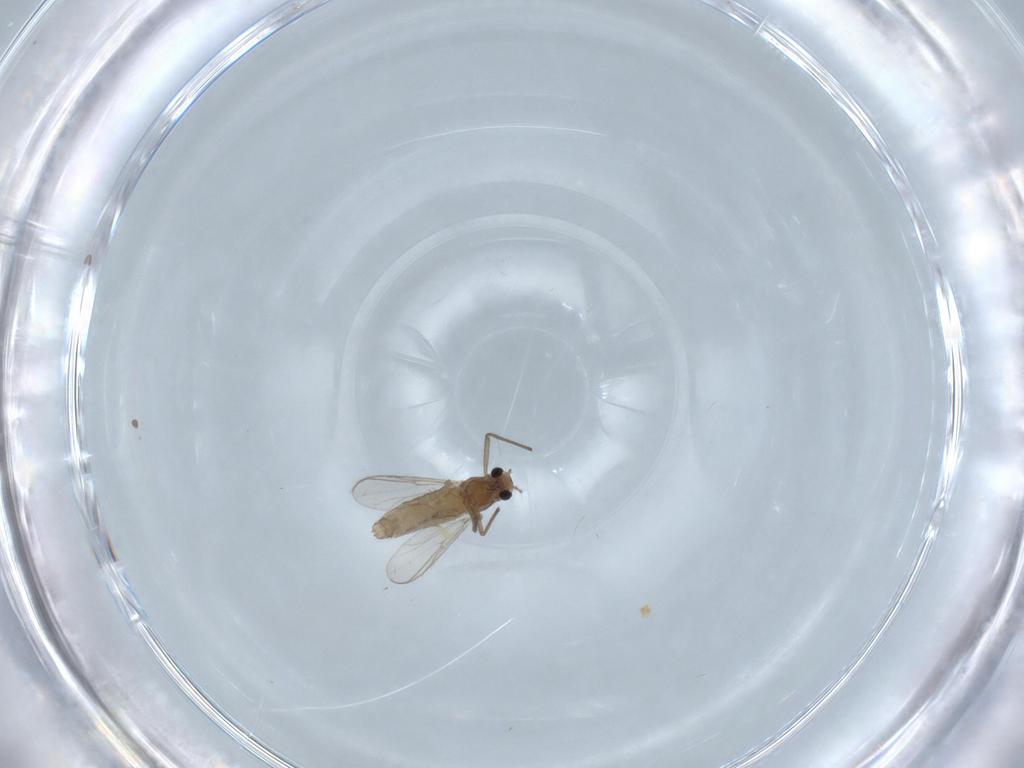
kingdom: Animalia
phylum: Arthropoda
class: Insecta
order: Diptera
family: Chironomidae
